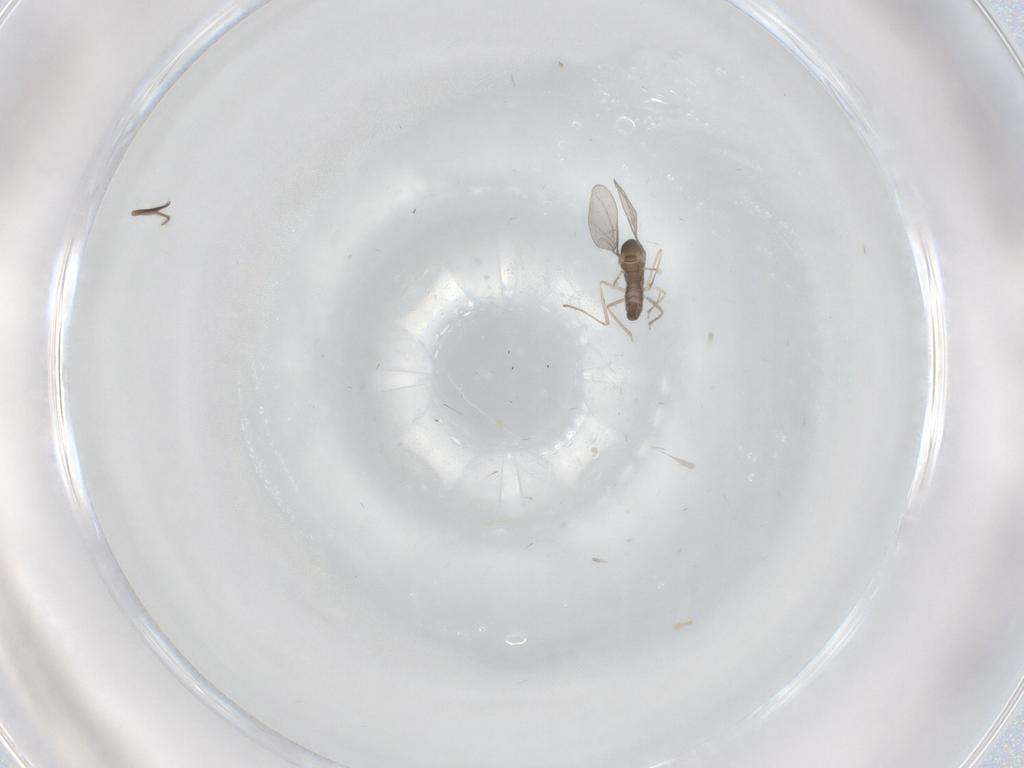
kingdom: Animalia
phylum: Arthropoda
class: Insecta
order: Diptera
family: Cecidomyiidae
